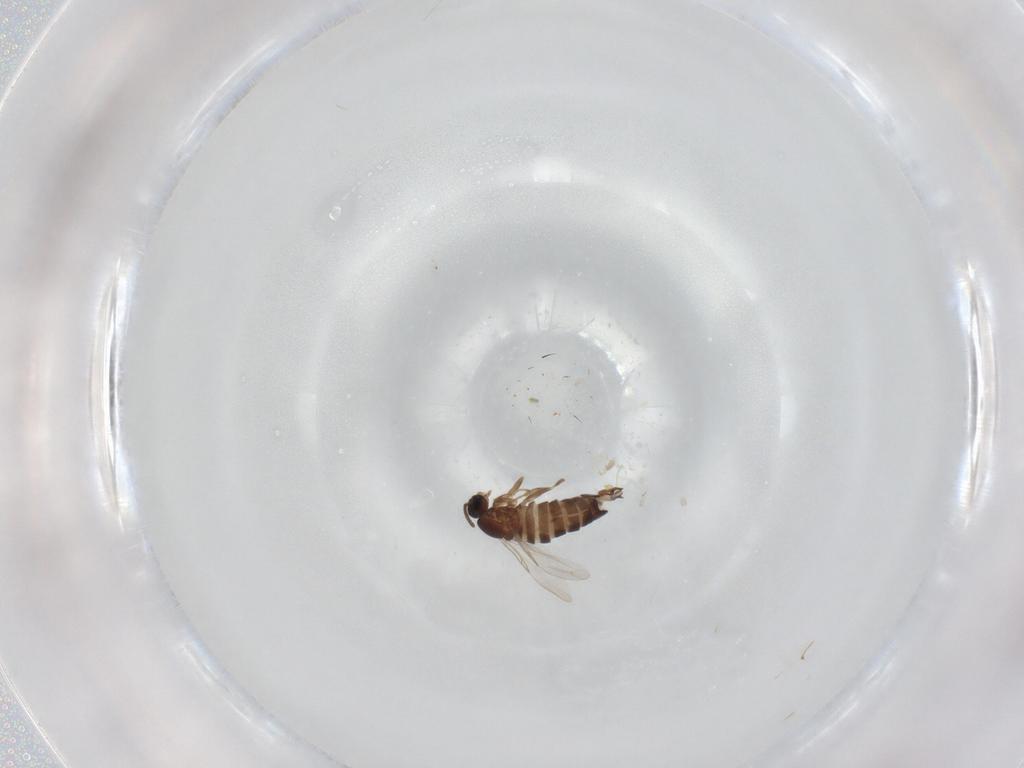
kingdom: Animalia
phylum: Arthropoda
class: Insecta
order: Diptera
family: Scatopsidae
